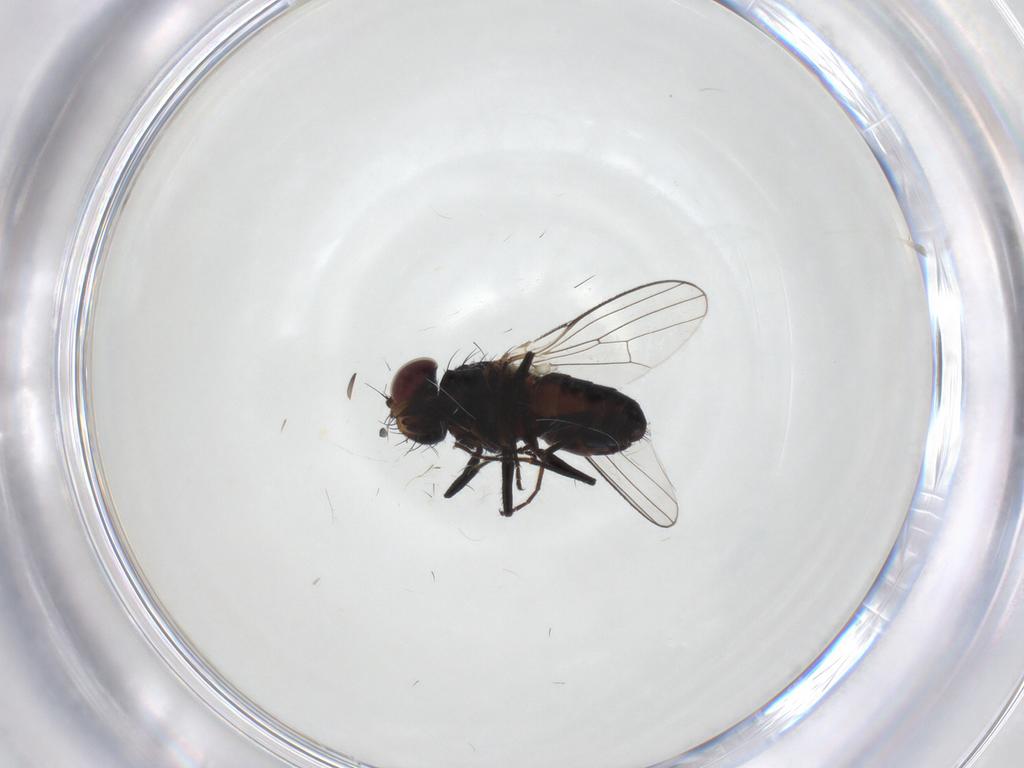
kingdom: Animalia
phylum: Arthropoda
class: Insecta
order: Diptera
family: Carnidae
